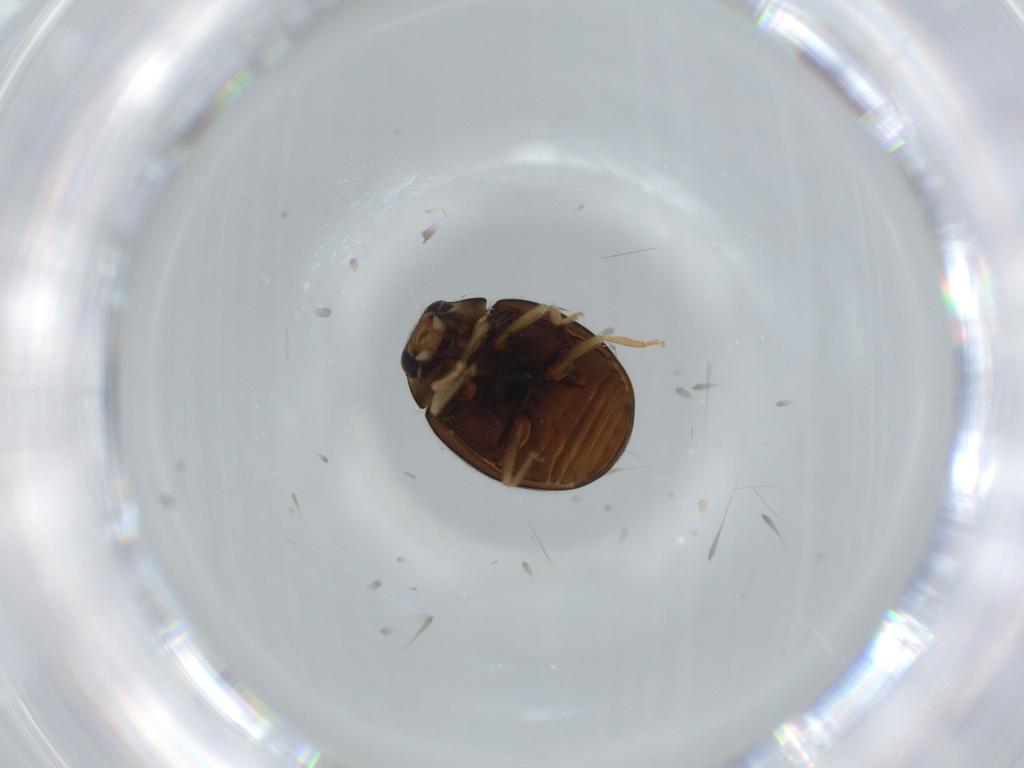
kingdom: Animalia
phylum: Arthropoda
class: Insecta
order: Coleoptera
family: Coccinellidae
